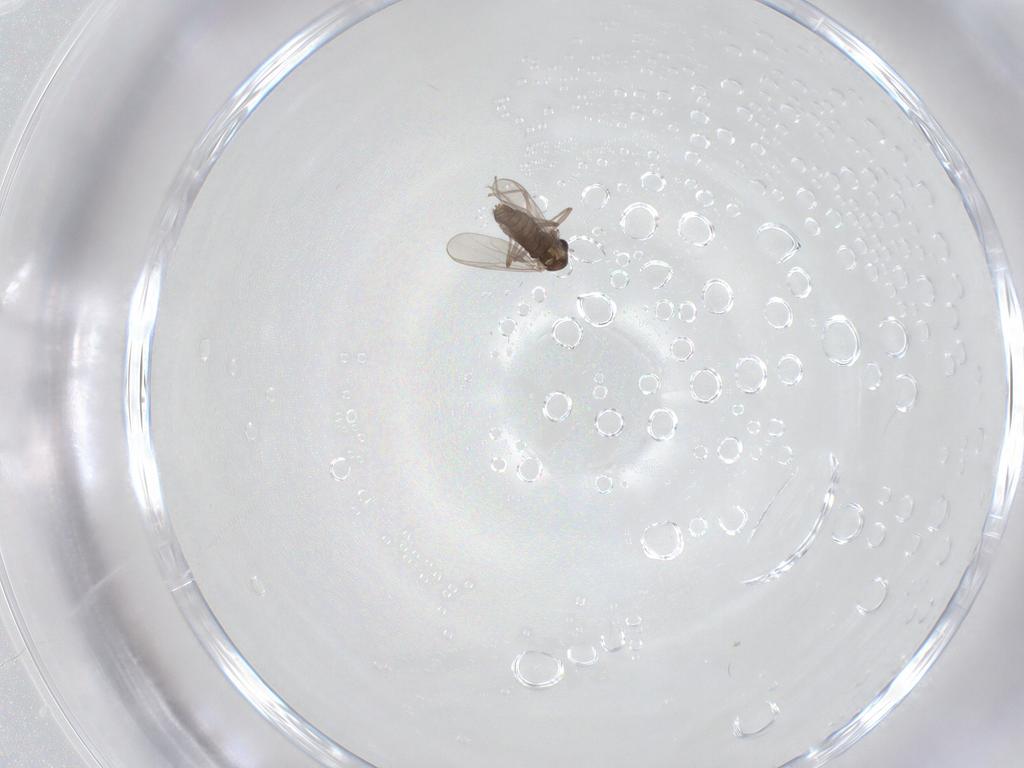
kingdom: Animalia
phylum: Arthropoda
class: Insecta
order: Diptera
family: Chironomidae
